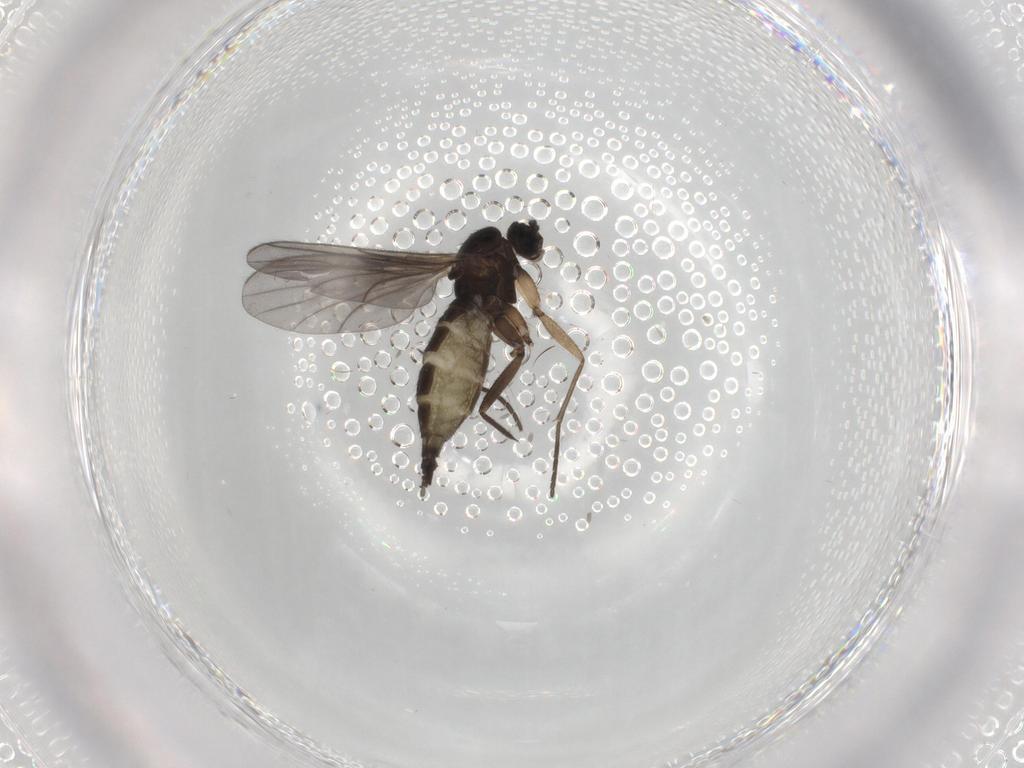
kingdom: Animalia
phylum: Arthropoda
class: Insecta
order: Diptera
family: Sciaridae
